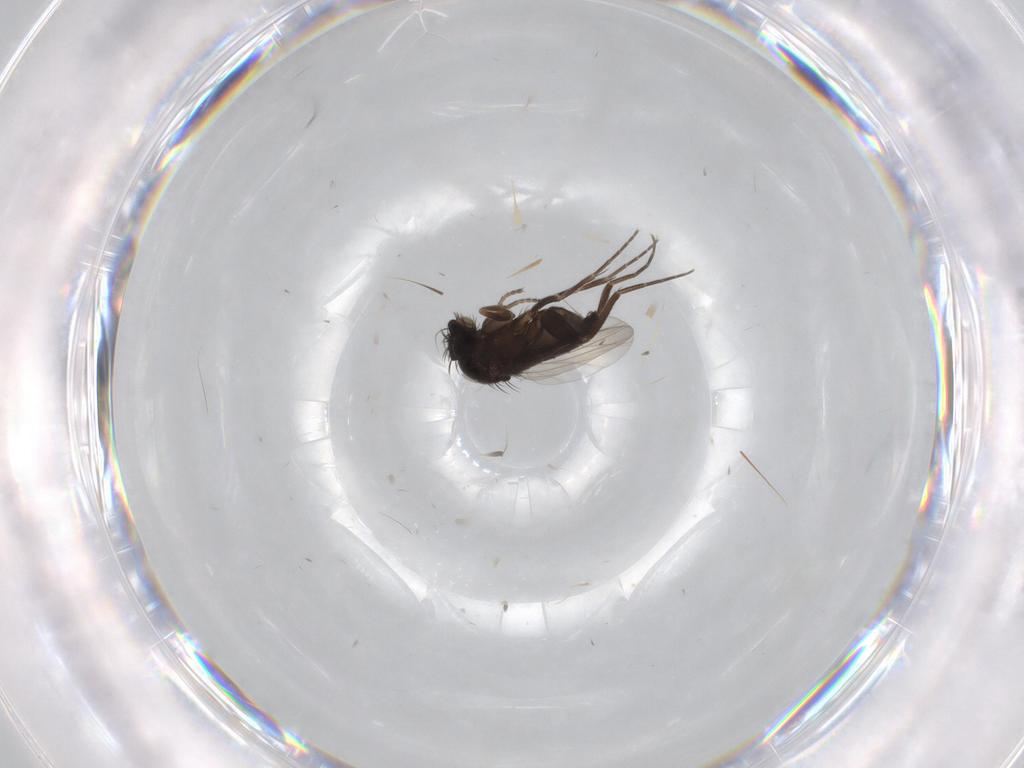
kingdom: Animalia
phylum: Arthropoda
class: Insecta
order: Diptera
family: Phoridae
